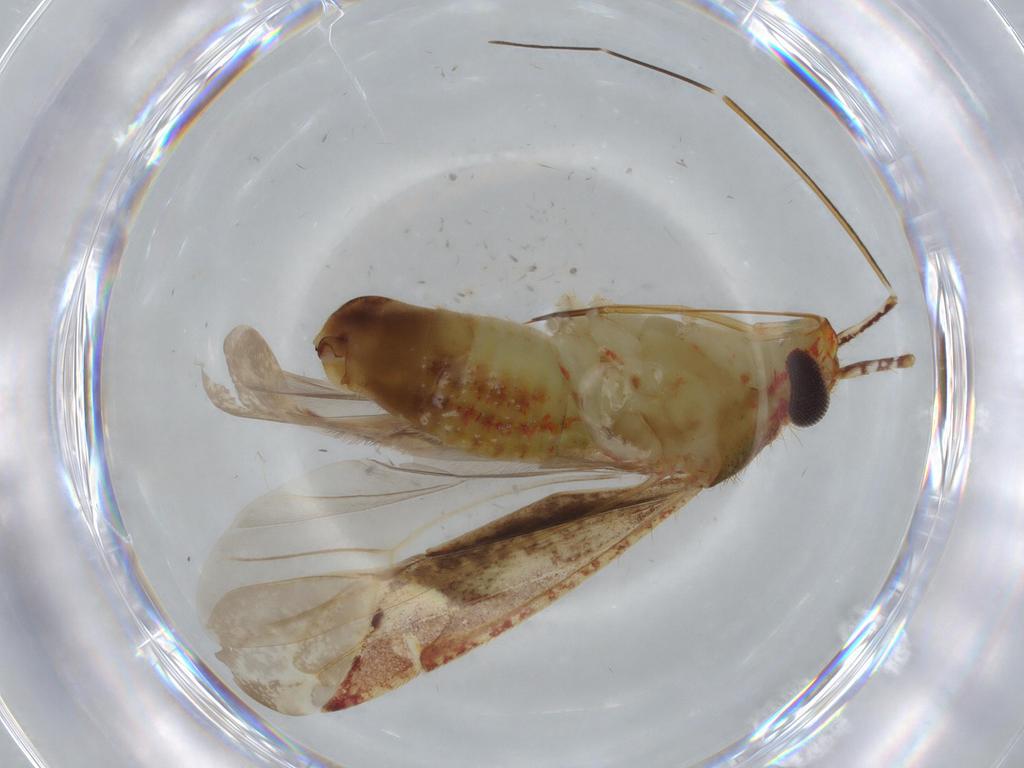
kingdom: Animalia
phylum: Arthropoda
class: Insecta
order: Hemiptera
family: Miridae
